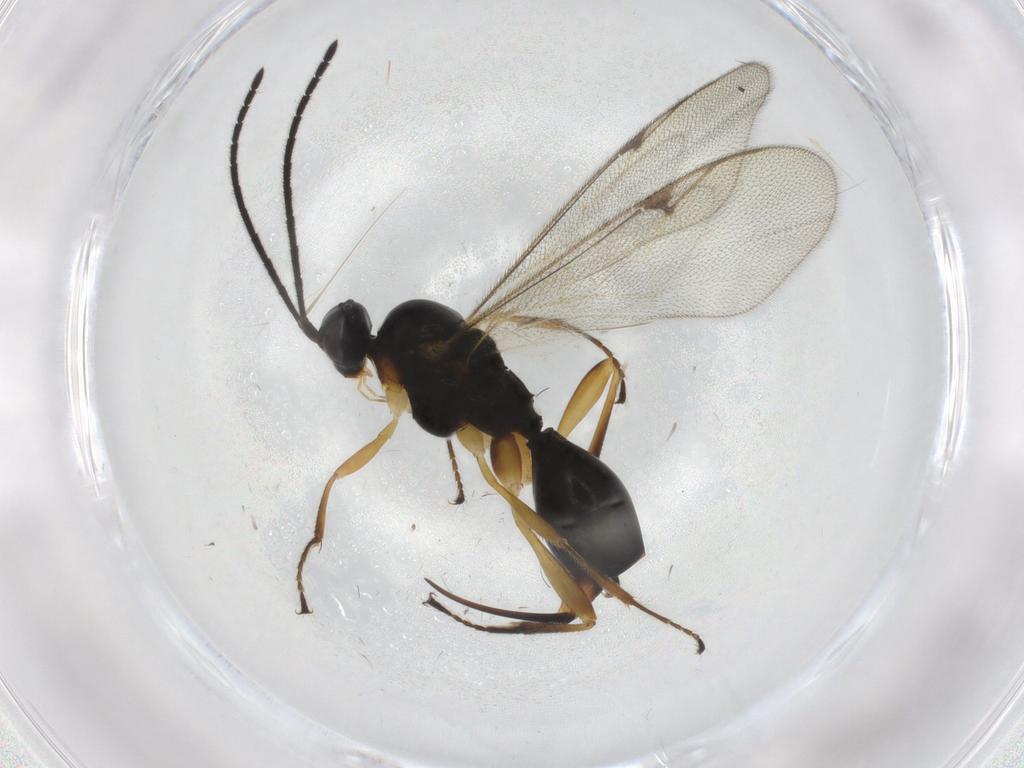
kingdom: Animalia
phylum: Arthropoda
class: Insecta
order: Hymenoptera
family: Proctotrupidae
